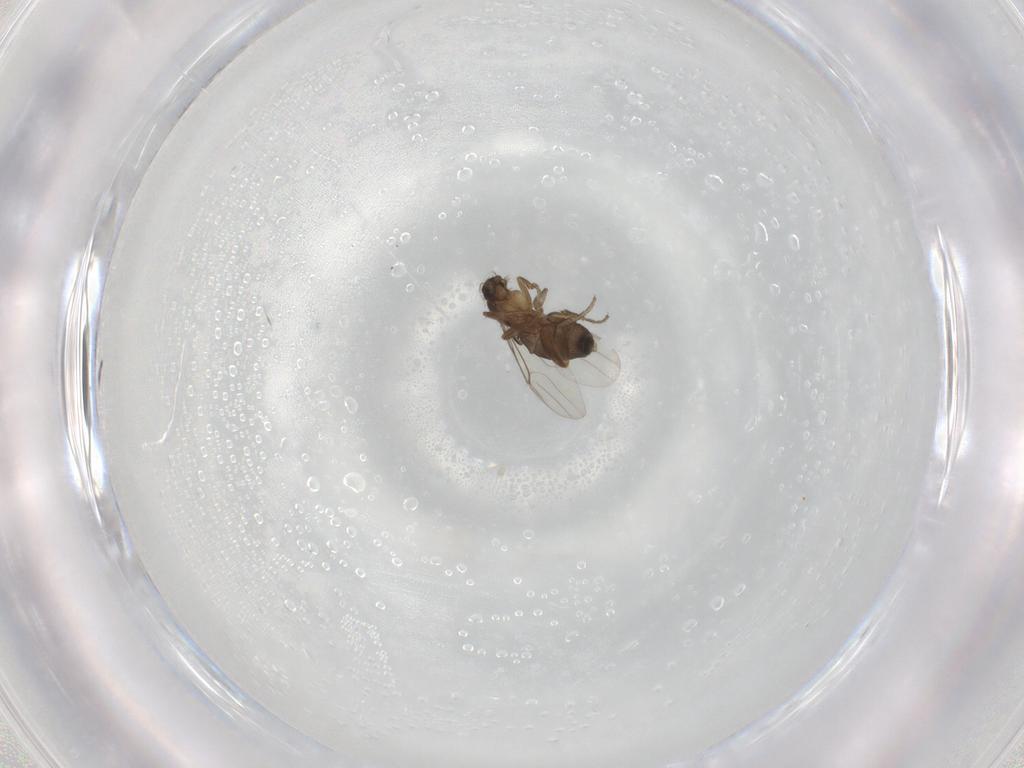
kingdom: Animalia
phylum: Arthropoda
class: Insecta
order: Diptera
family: Phoridae
